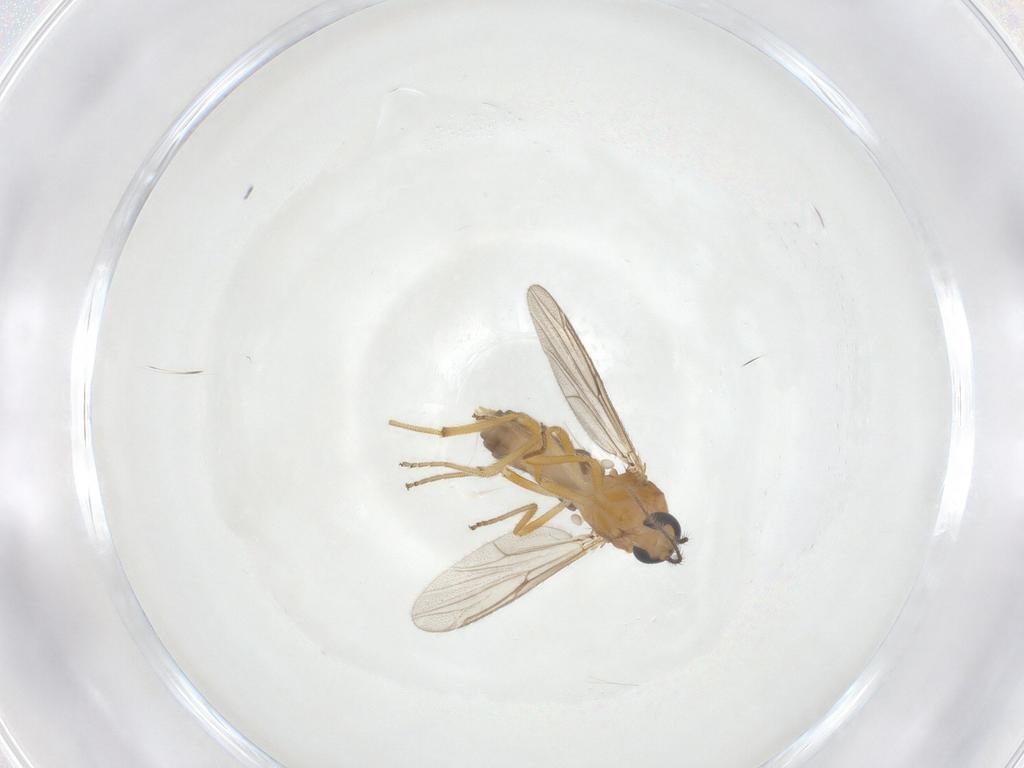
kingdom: Animalia
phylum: Arthropoda
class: Insecta
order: Diptera
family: Ceratopogonidae
